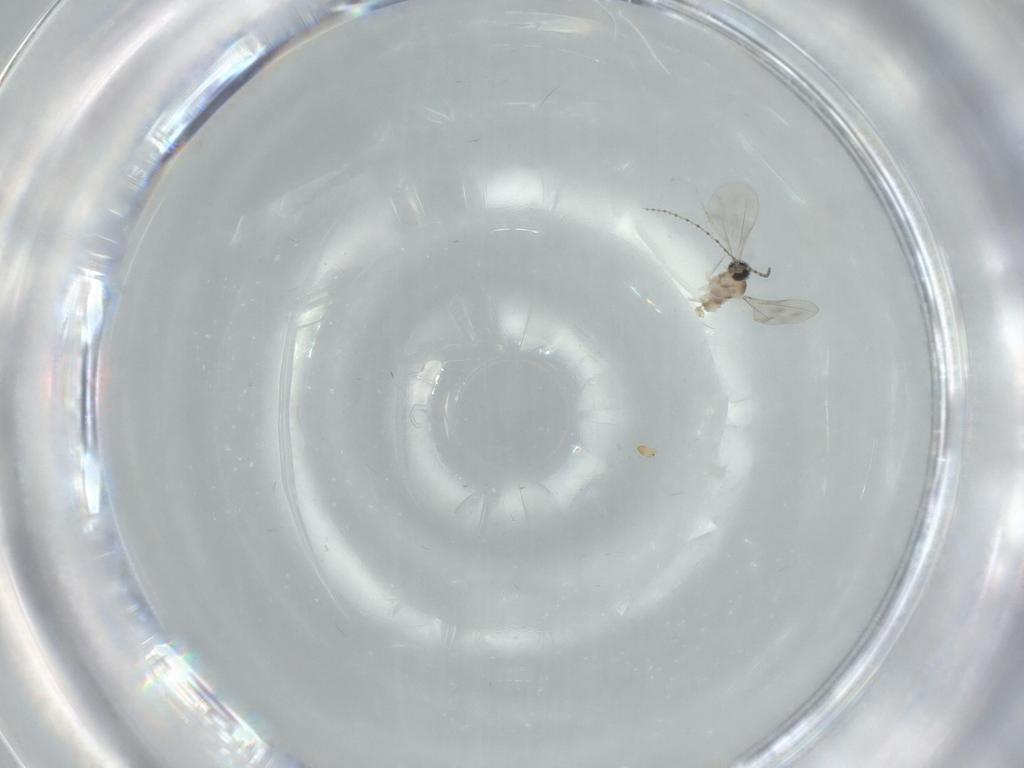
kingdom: Animalia
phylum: Arthropoda
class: Insecta
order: Diptera
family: Cecidomyiidae
